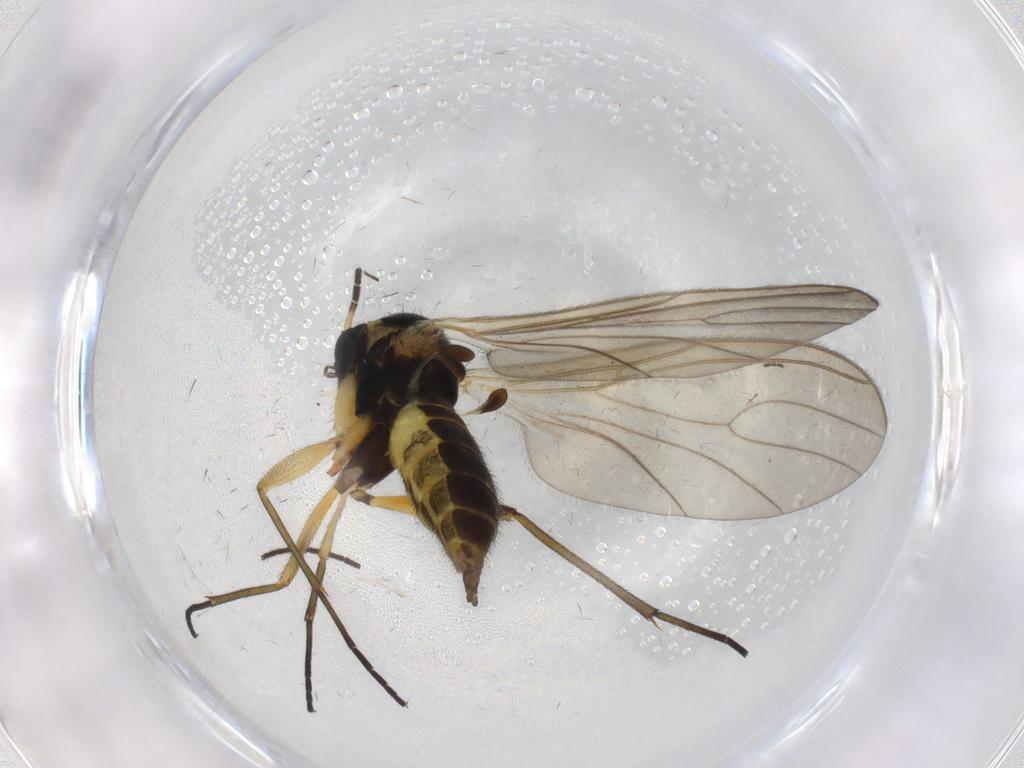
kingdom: Animalia
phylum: Arthropoda
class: Insecta
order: Diptera
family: Sciaridae
